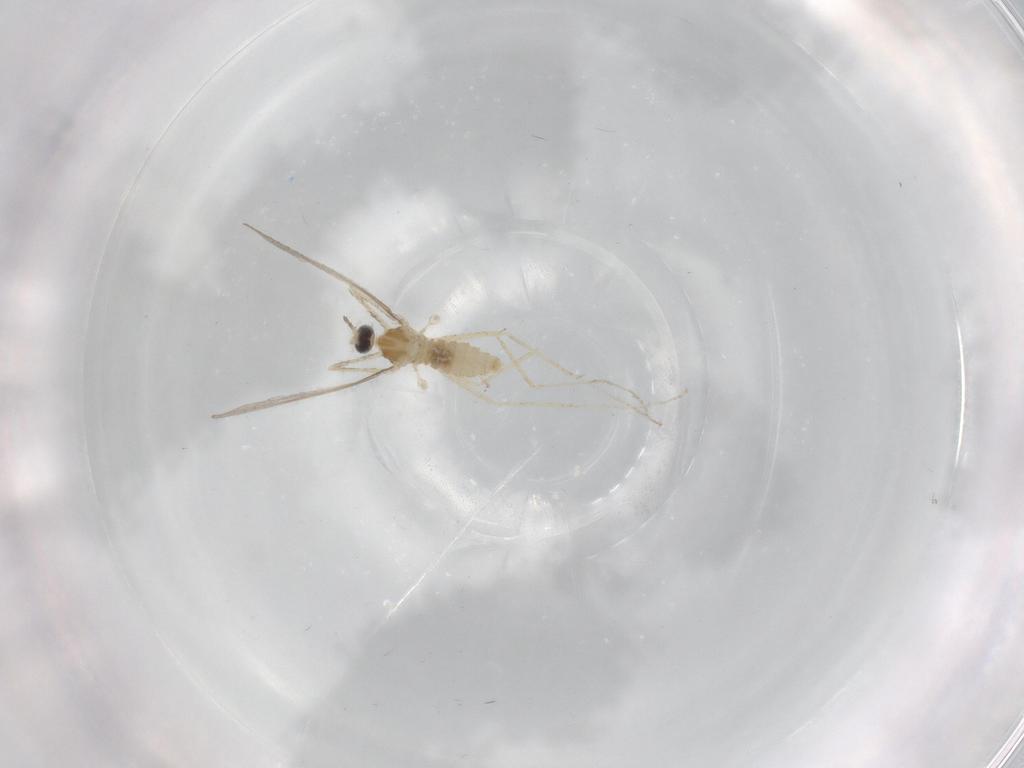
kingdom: Animalia
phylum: Arthropoda
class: Insecta
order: Diptera
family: Cecidomyiidae
